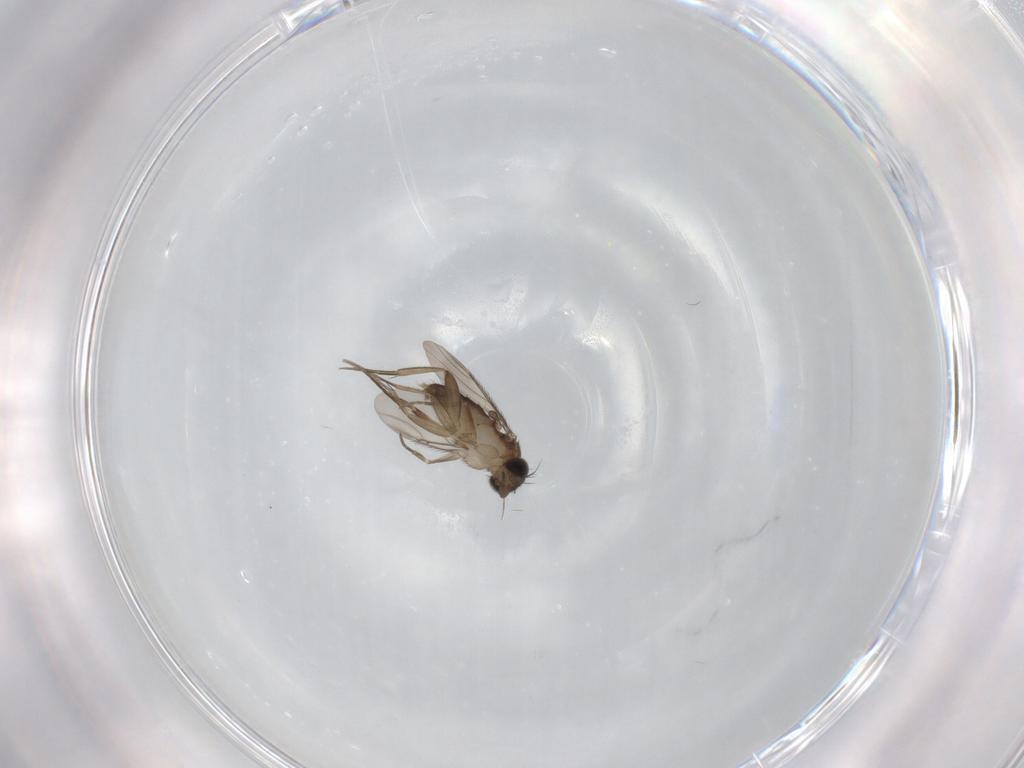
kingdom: Animalia
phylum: Arthropoda
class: Insecta
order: Diptera
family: Phoridae
